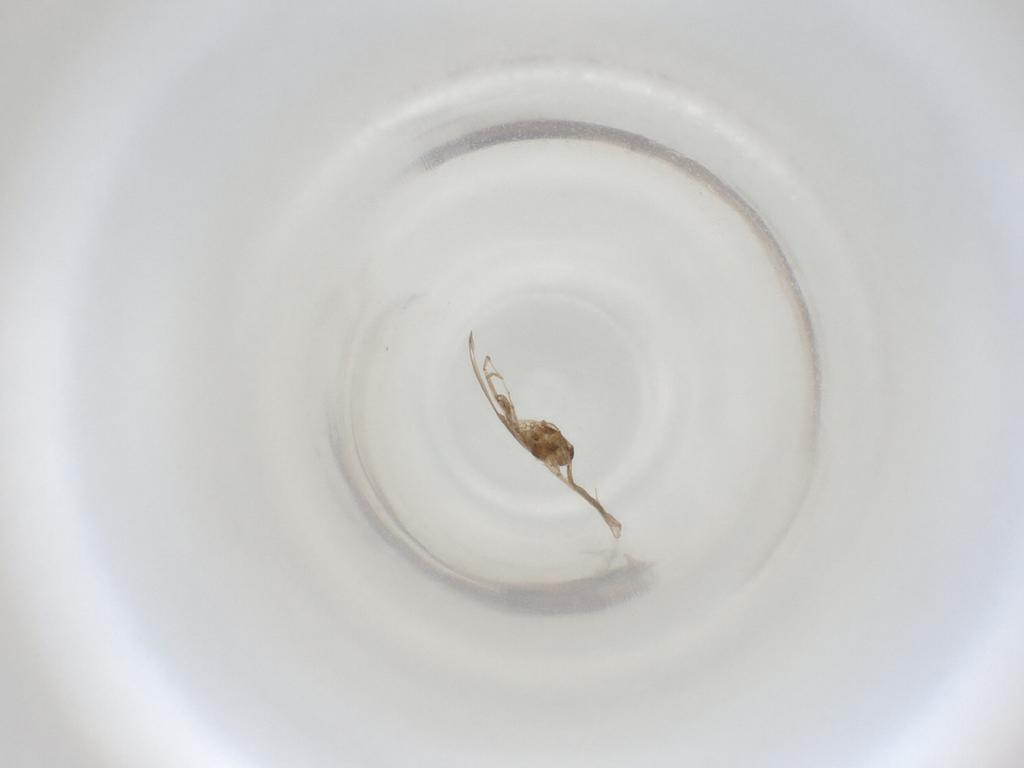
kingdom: Animalia
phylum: Arthropoda
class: Insecta
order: Diptera
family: Cecidomyiidae
